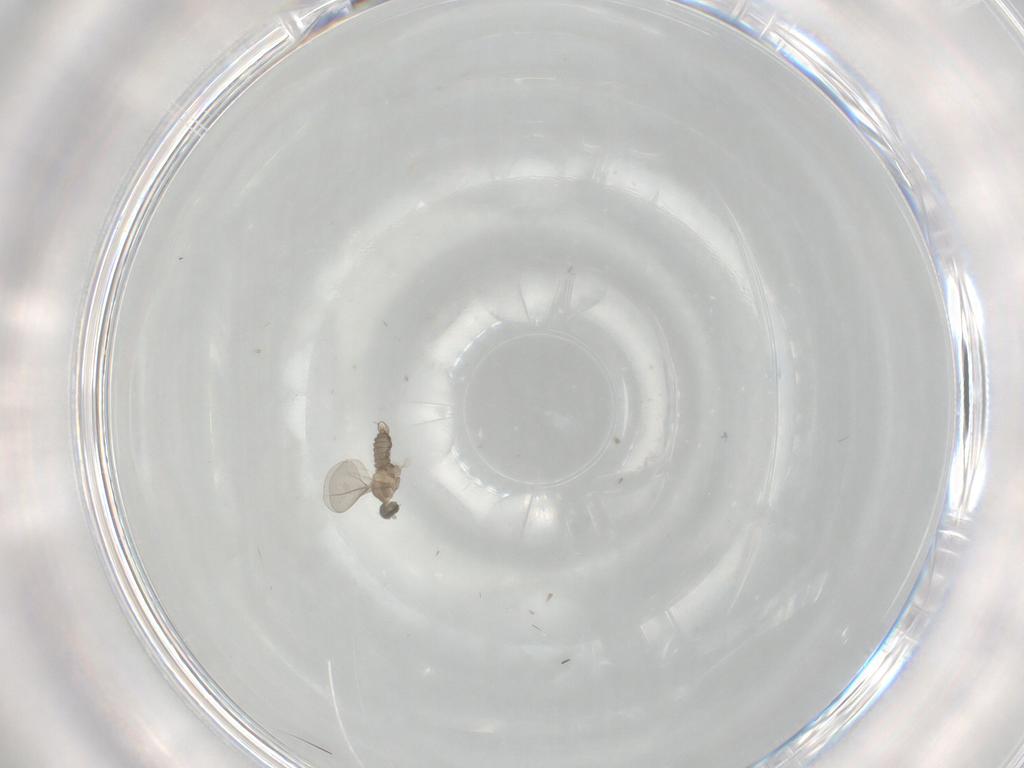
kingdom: Animalia
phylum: Arthropoda
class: Insecta
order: Diptera
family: Cecidomyiidae
